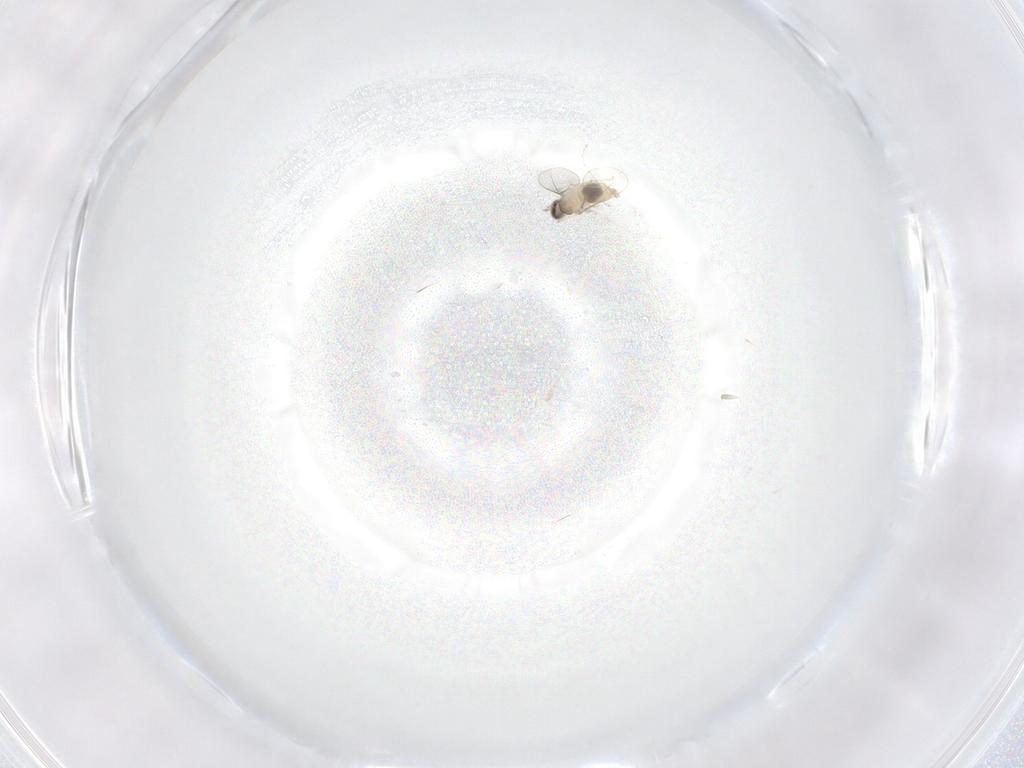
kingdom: Animalia
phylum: Arthropoda
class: Insecta
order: Diptera
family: Cecidomyiidae
